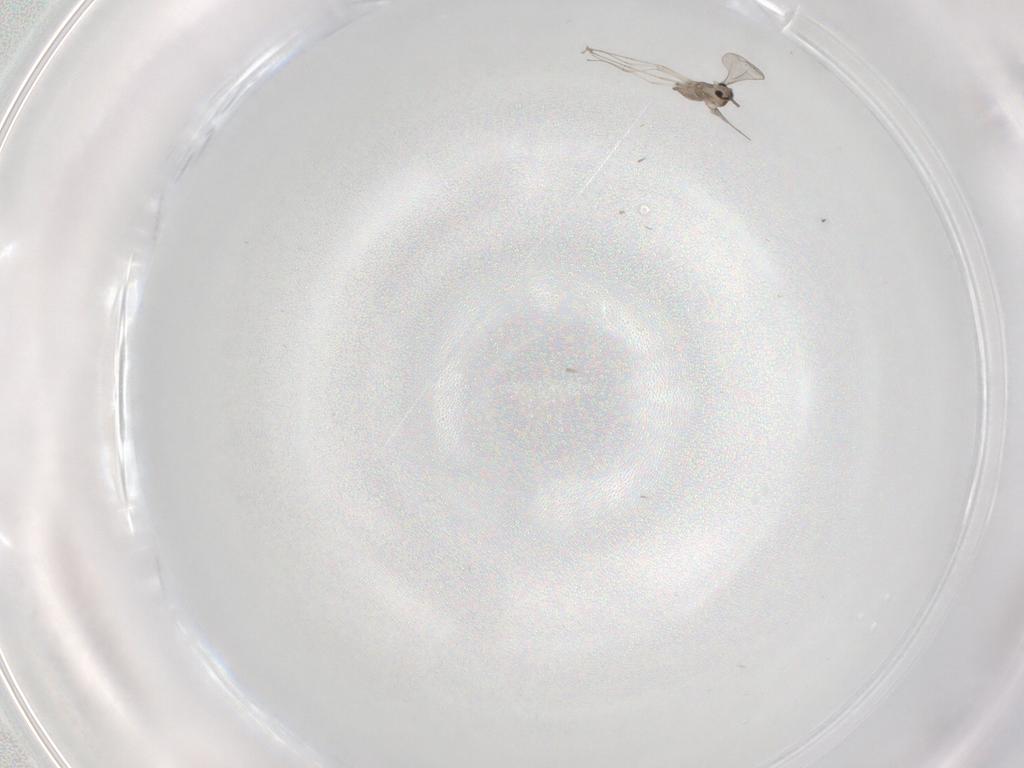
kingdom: Animalia
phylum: Arthropoda
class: Insecta
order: Diptera
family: Cecidomyiidae
